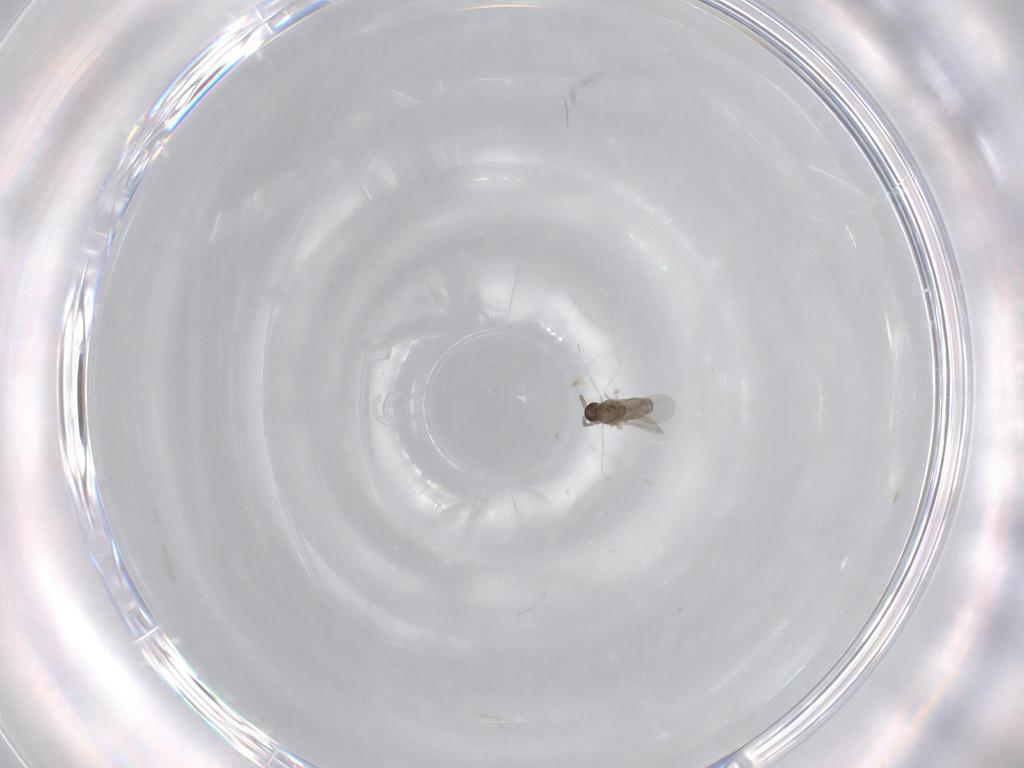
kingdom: Animalia
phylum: Arthropoda
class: Insecta
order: Diptera
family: Cecidomyiidae
